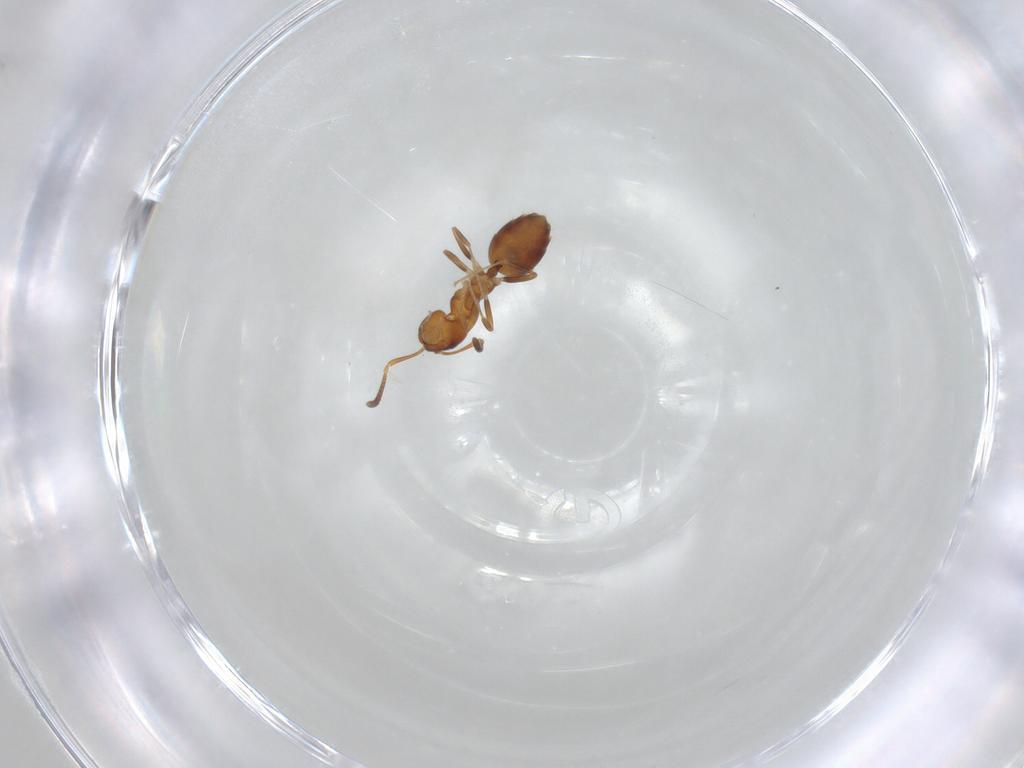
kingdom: Animalia
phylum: Arthropoda
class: Insecta
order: Hymenoptera
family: Formicidae
